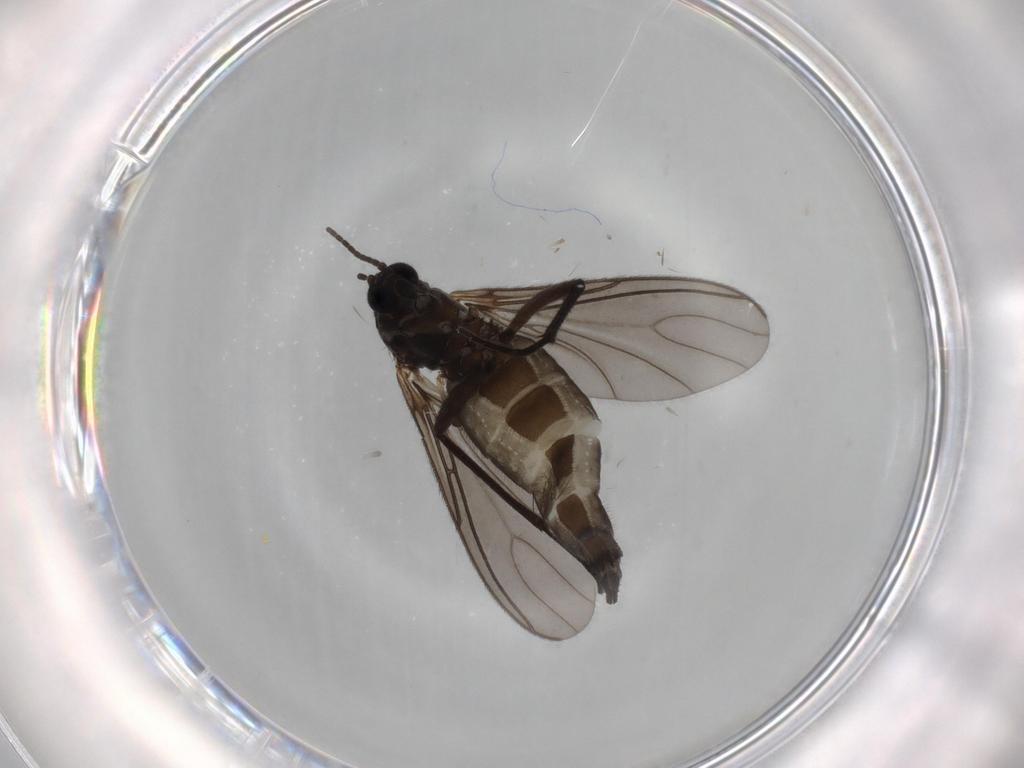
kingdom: Animalia
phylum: Arthropoda
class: Insecta
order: Diptera
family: Sciaridae
